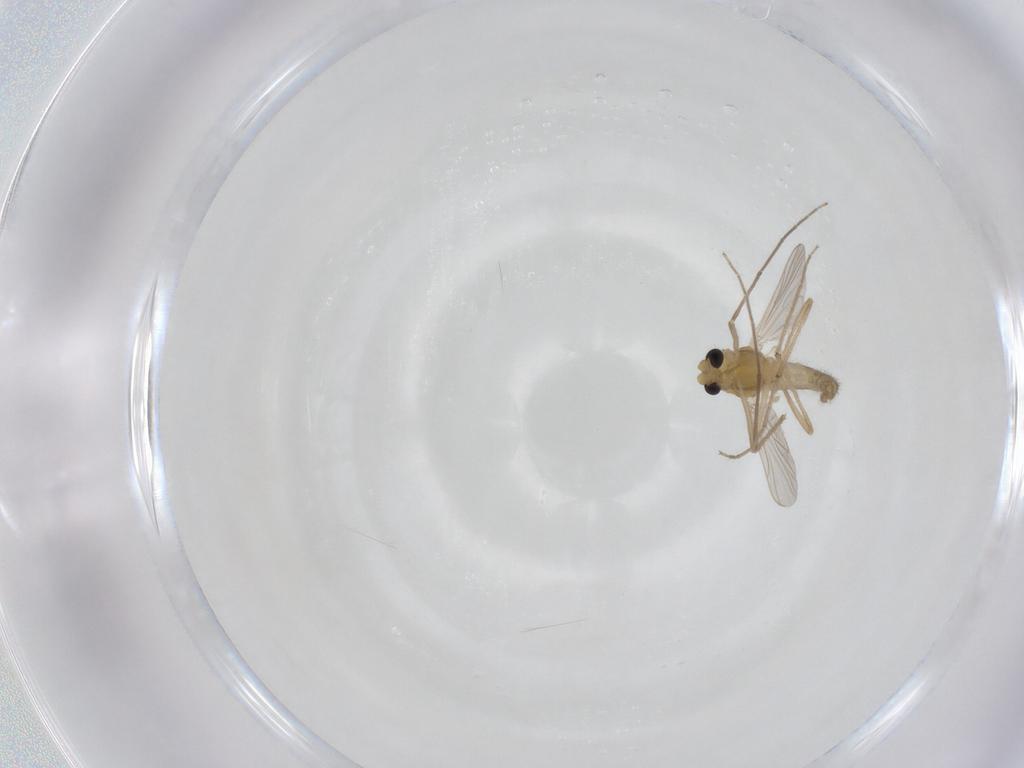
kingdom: Animalia
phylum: Arthropoda
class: Insecta
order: Diptera
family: Chironomidae
